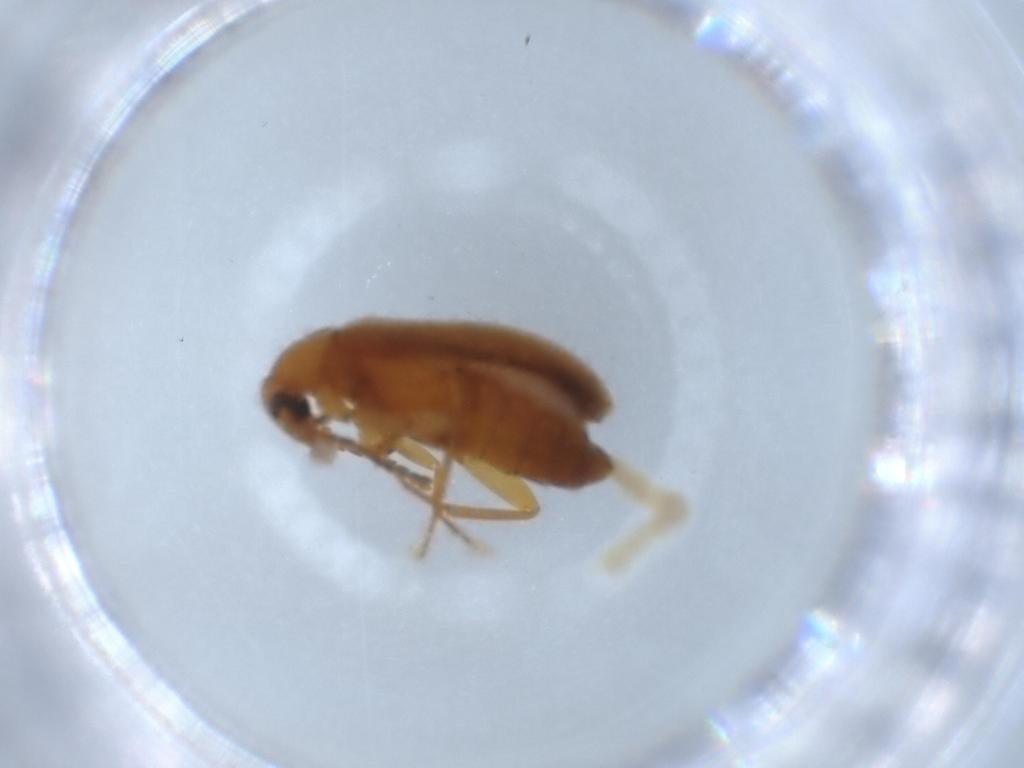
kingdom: Animalia
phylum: Arthropoda
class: Insecta
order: Coleoptera
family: Scraptiidae
